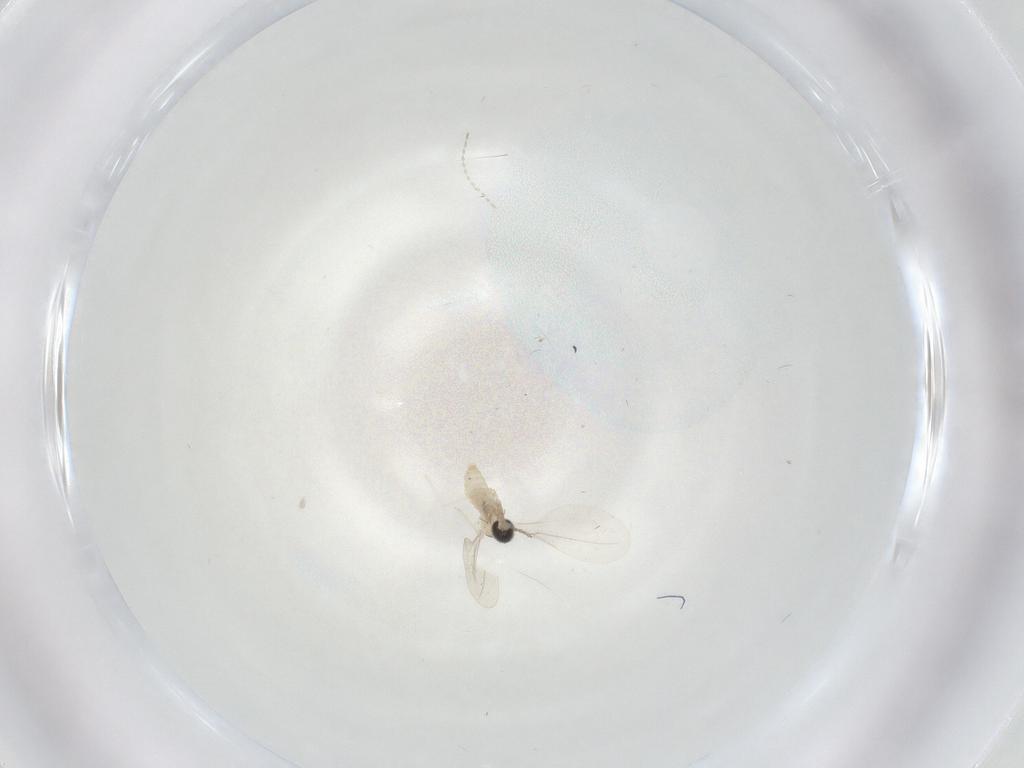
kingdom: Animalia
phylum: Arthropoda
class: Insecta
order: Diptera
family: Cecidomyiidae
